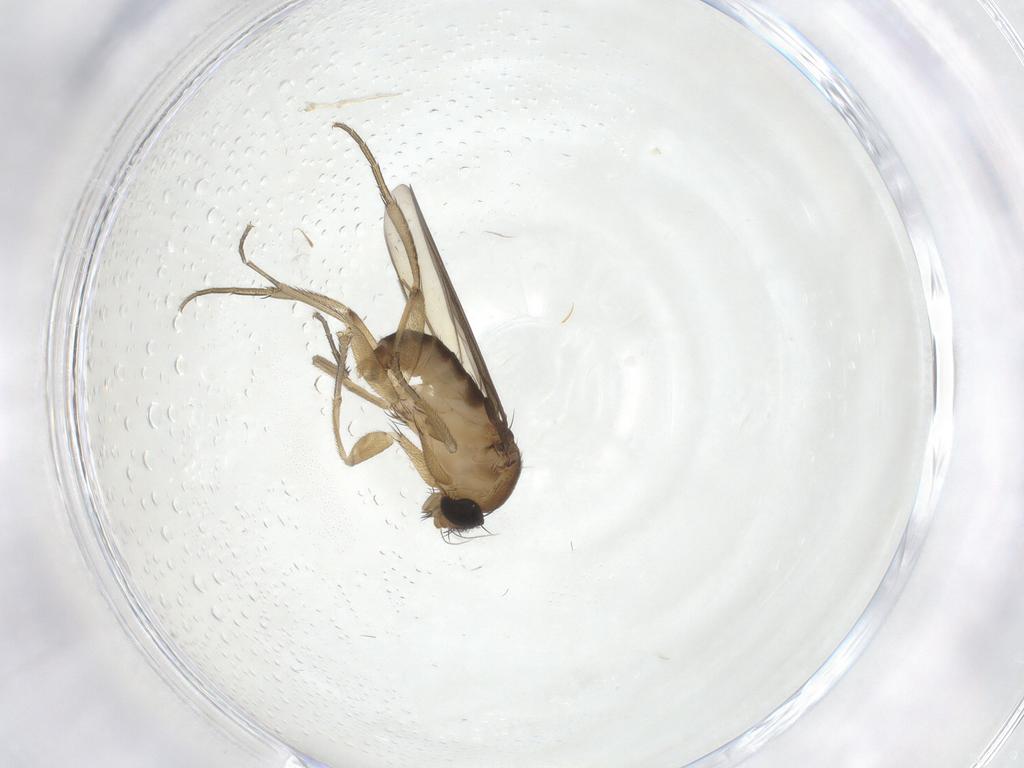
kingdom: Animalia
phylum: Arthropoda
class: Insecta
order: Diptera
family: Phoridae
